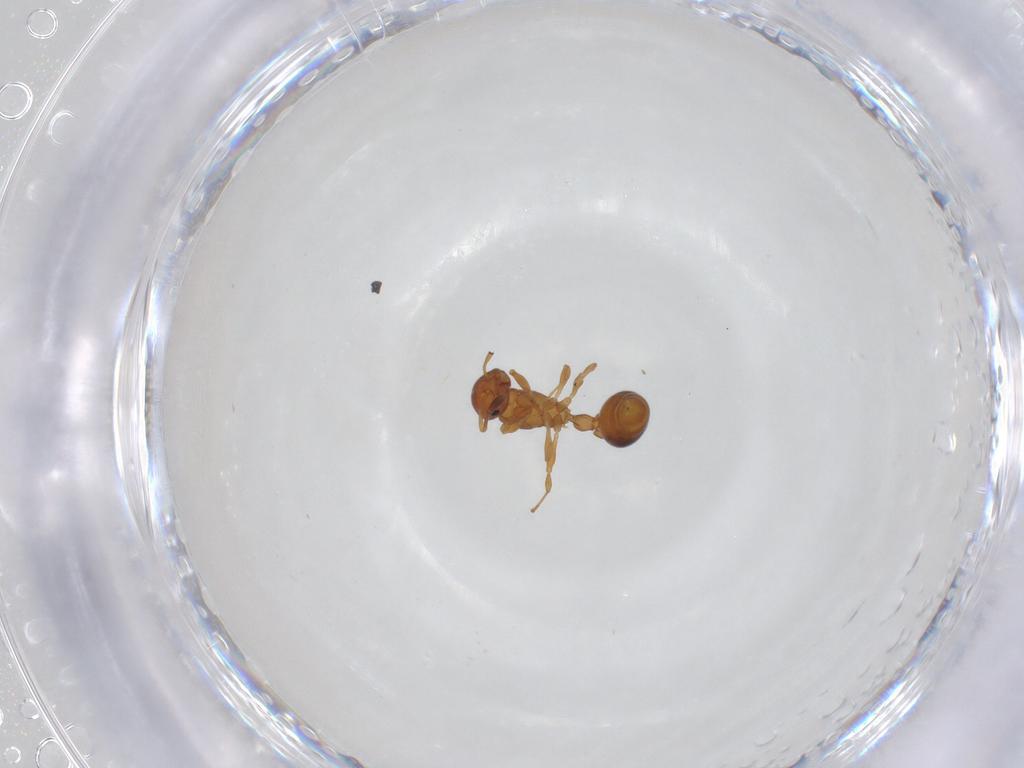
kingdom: Animalia
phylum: Arthropoda
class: Insecta
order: Hymenoptera
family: Formicidae
